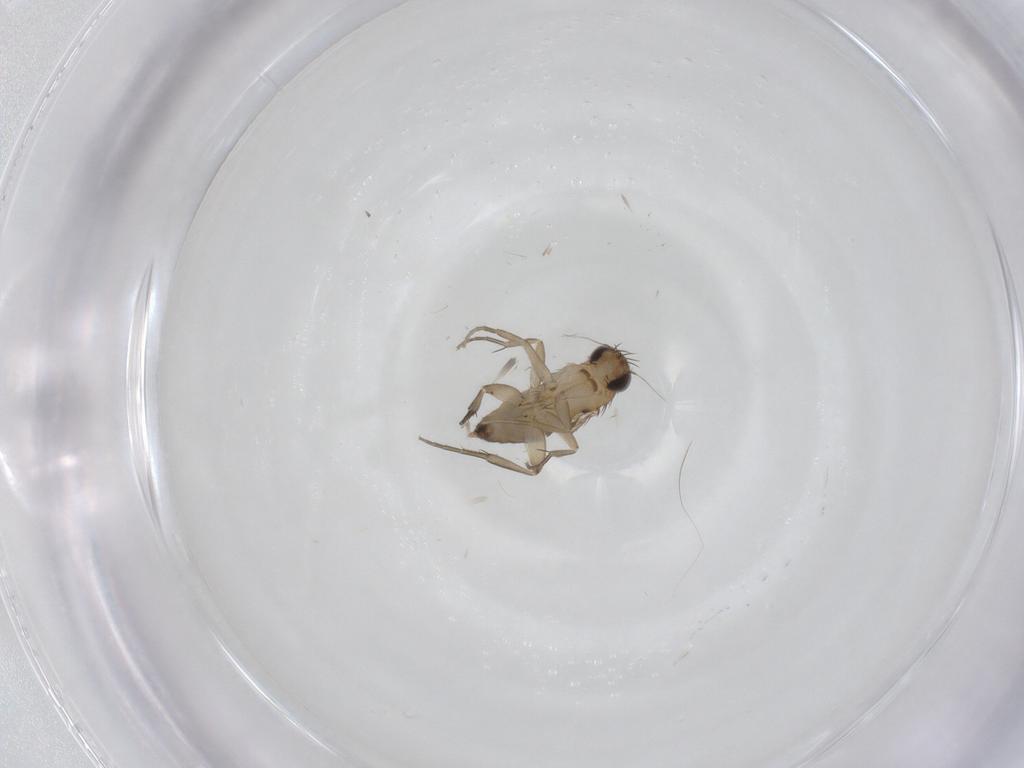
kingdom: Animalia
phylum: Arthropoda
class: Insecta
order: Diptera
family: Phoridae
